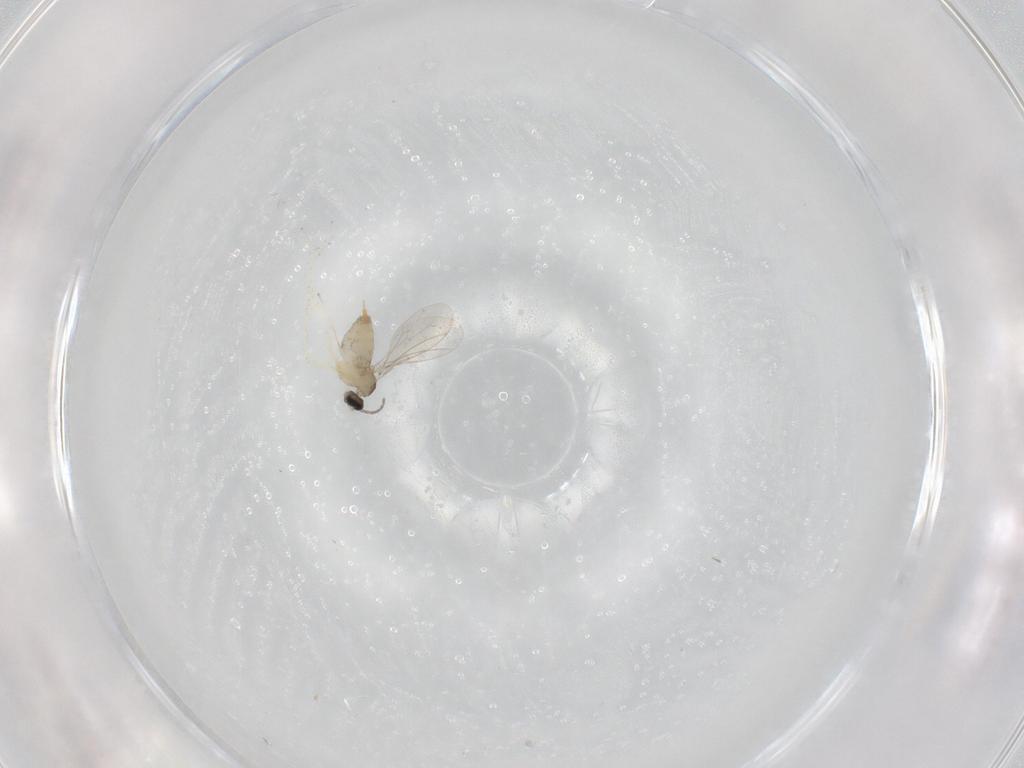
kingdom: Animalia
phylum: Arthropoda
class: Insecta
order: Diptera
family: Cecidomyiidae
